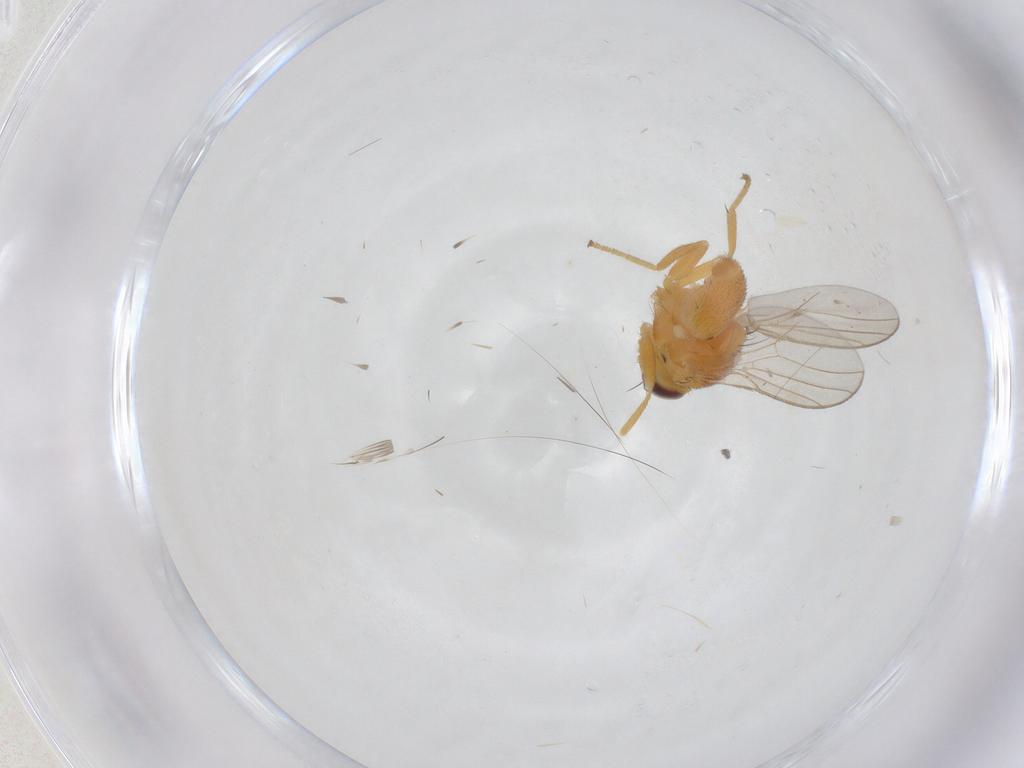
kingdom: Animalia
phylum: Arthropoda
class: Insecta
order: Diptera
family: Chloropidae
